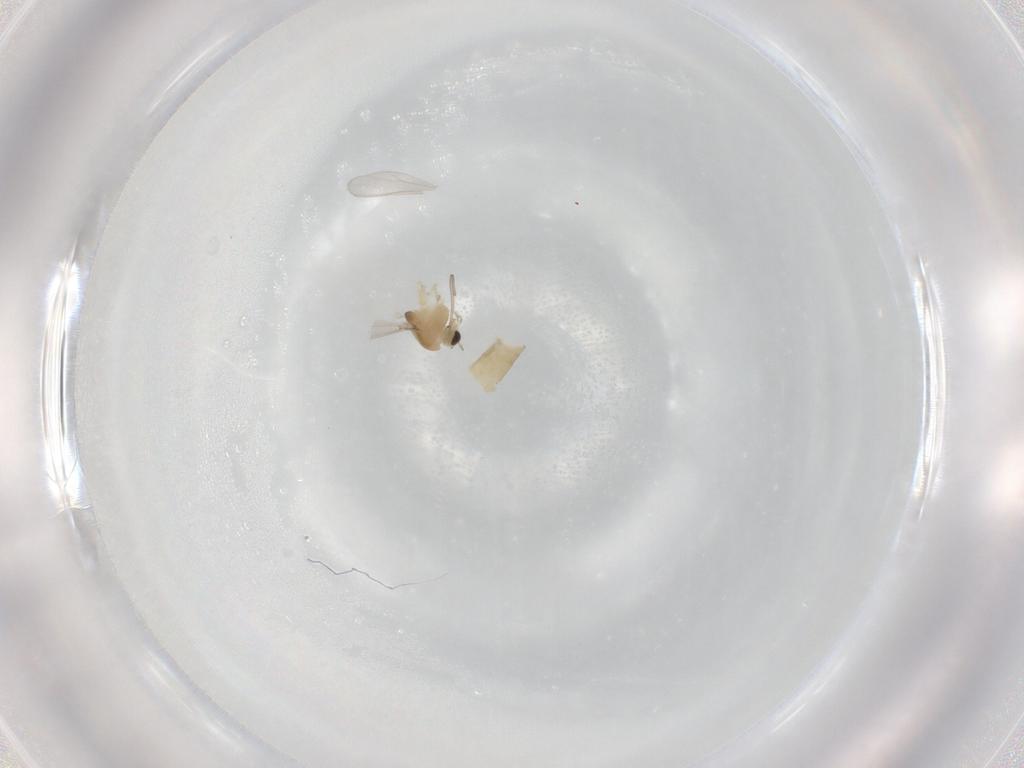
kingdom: Animalia
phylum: Arthropoda
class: Insecta
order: Diptera
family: Chironomidae
